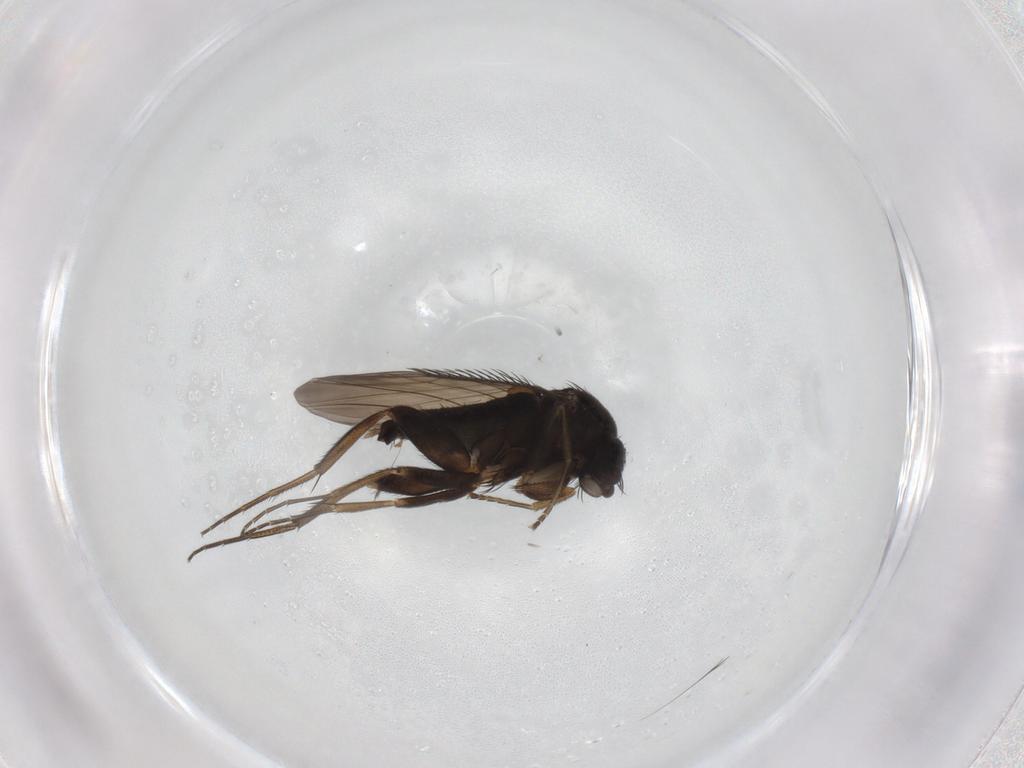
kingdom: Animalia
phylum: Arthropoda
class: Insecta
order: Diptera
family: Phoridae
